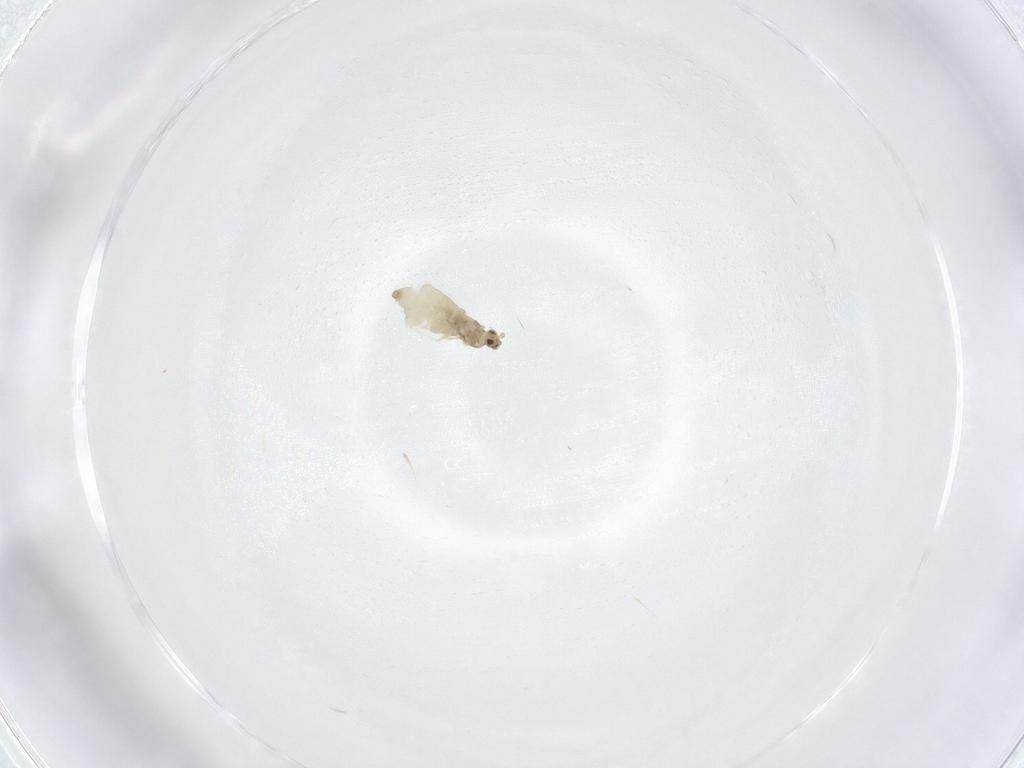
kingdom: Animalia
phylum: Arthropoda
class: Insecta
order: Diptera
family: Cecidomyiidae
